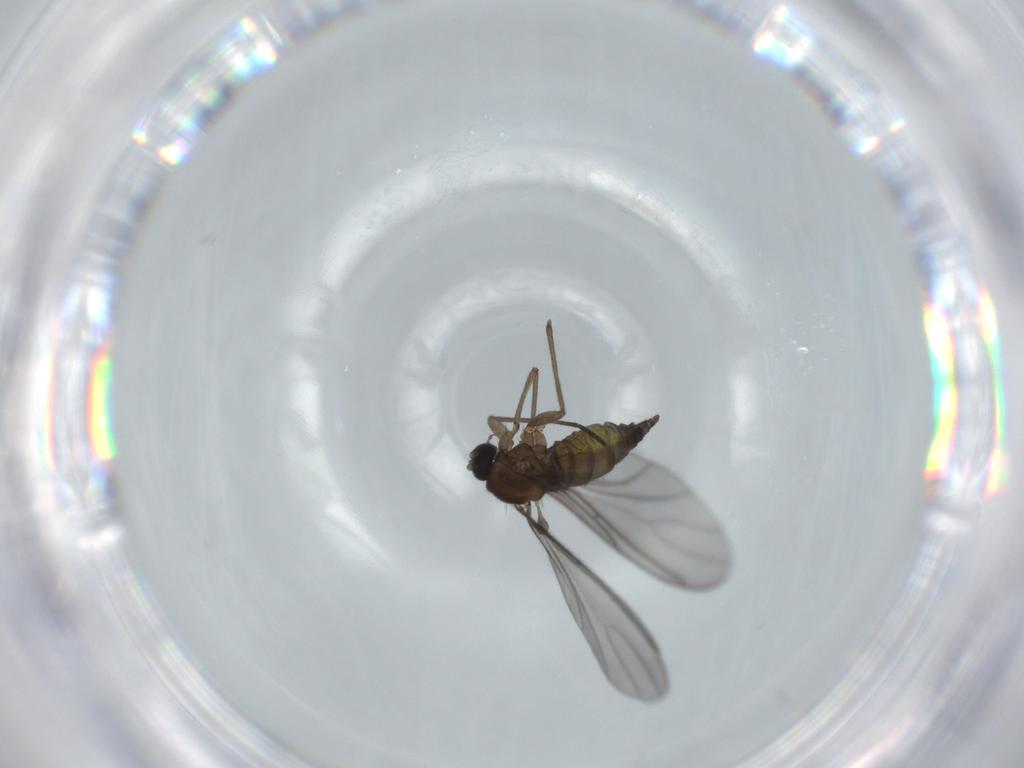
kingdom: Animalia
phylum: Arthropoda
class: Insecta
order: Diptera
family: Sciaridae
